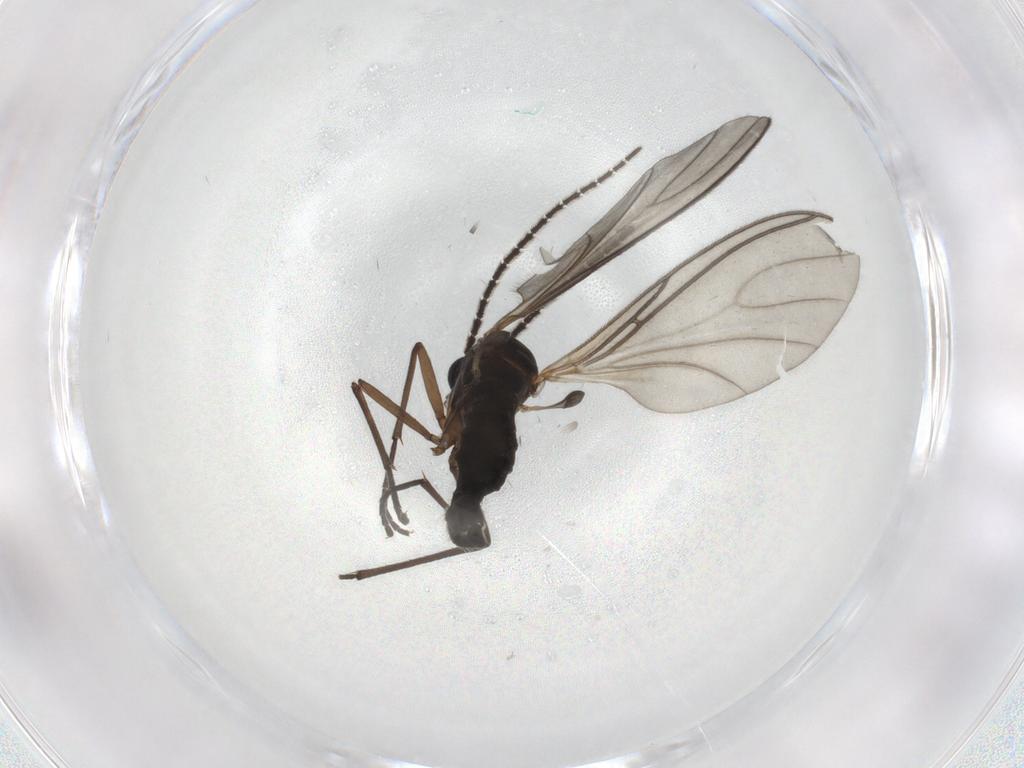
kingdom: Animalia
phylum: Arthropoda
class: Insecta
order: Diptera
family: Sciaridae
